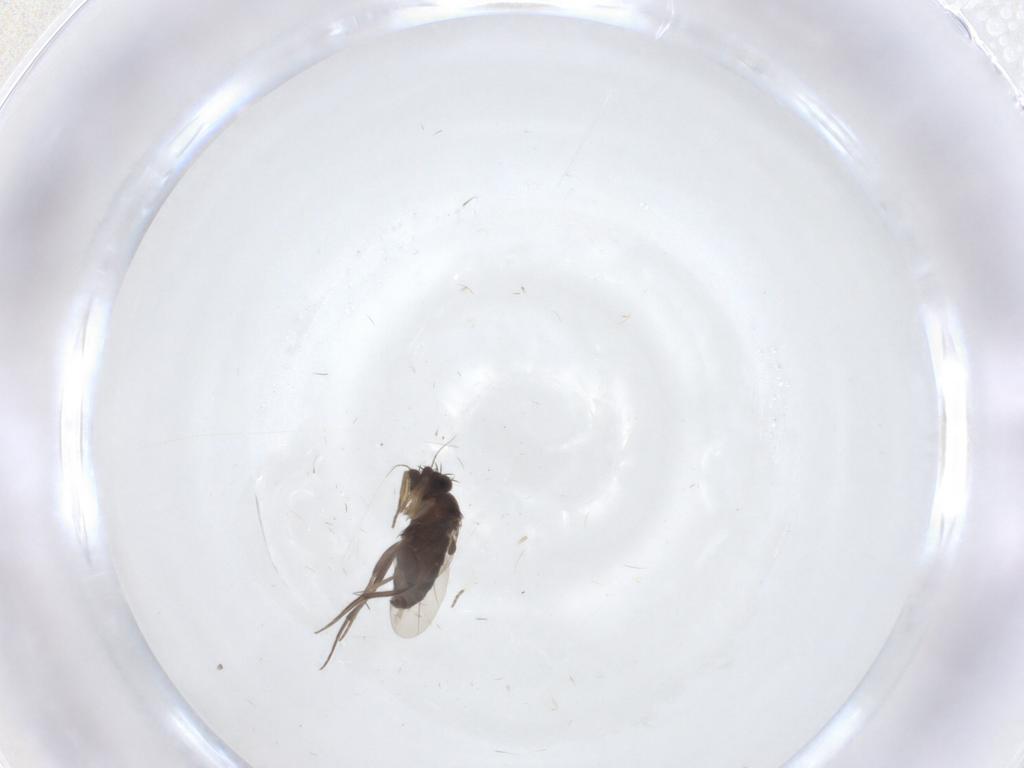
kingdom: Animalia
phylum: Arthropoda
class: Insecta
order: Diptera
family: Phoridae
